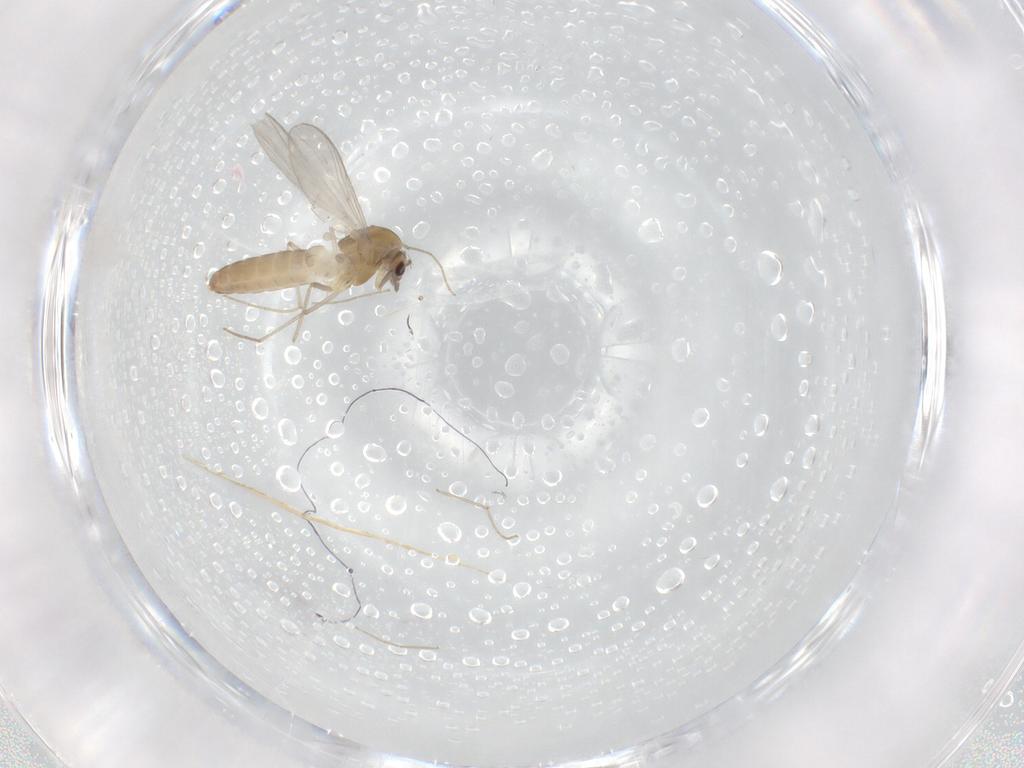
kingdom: Animalia
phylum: Arthropoda
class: Insecta
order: Diptera
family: Chironomidae
